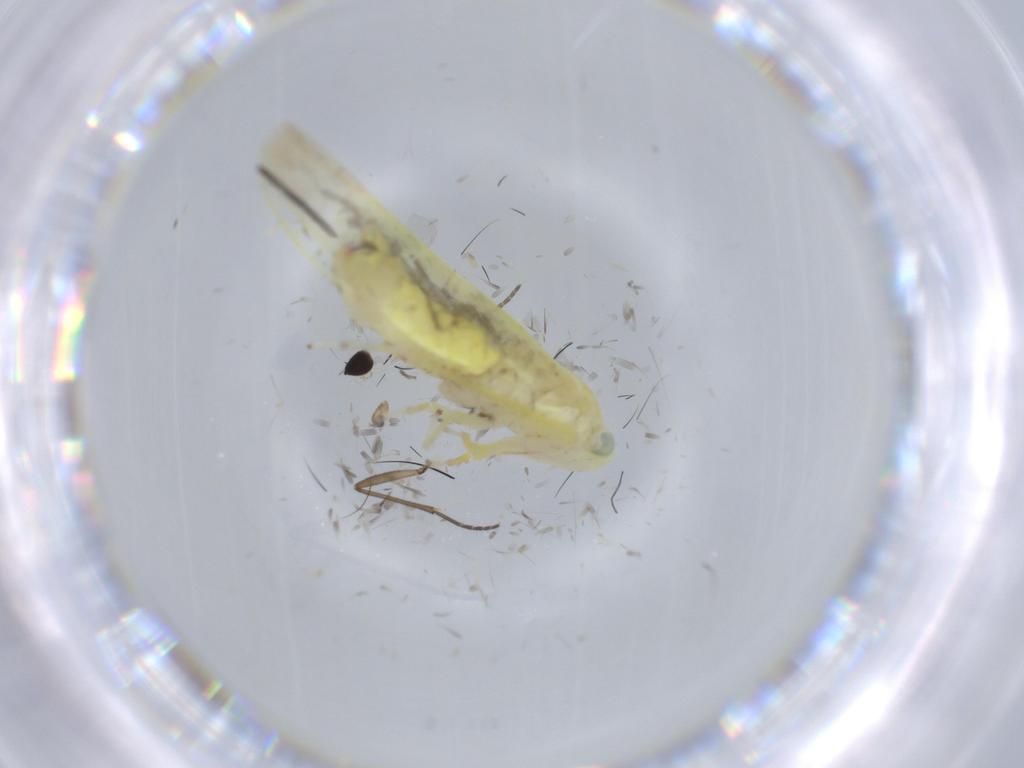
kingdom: Animalia
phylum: Arthropoda
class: Insecta
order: Hemiptera
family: Cicadellidae
